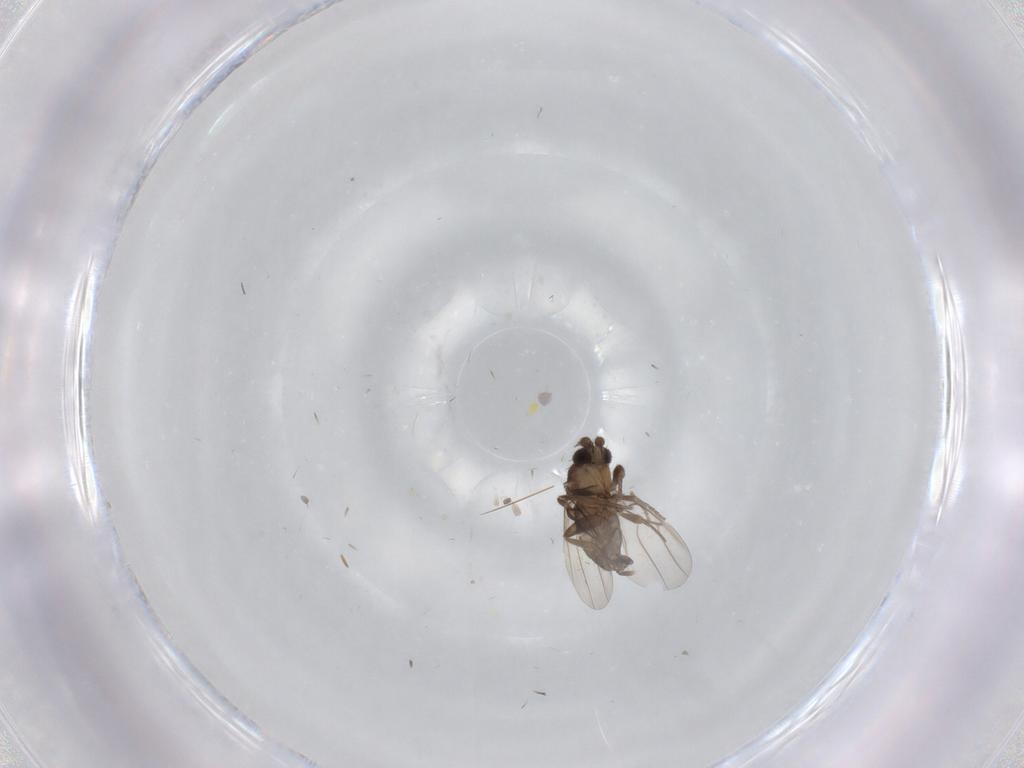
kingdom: Animalia
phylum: Arthropoda
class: Insecta
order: Diptera
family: Phoridae
